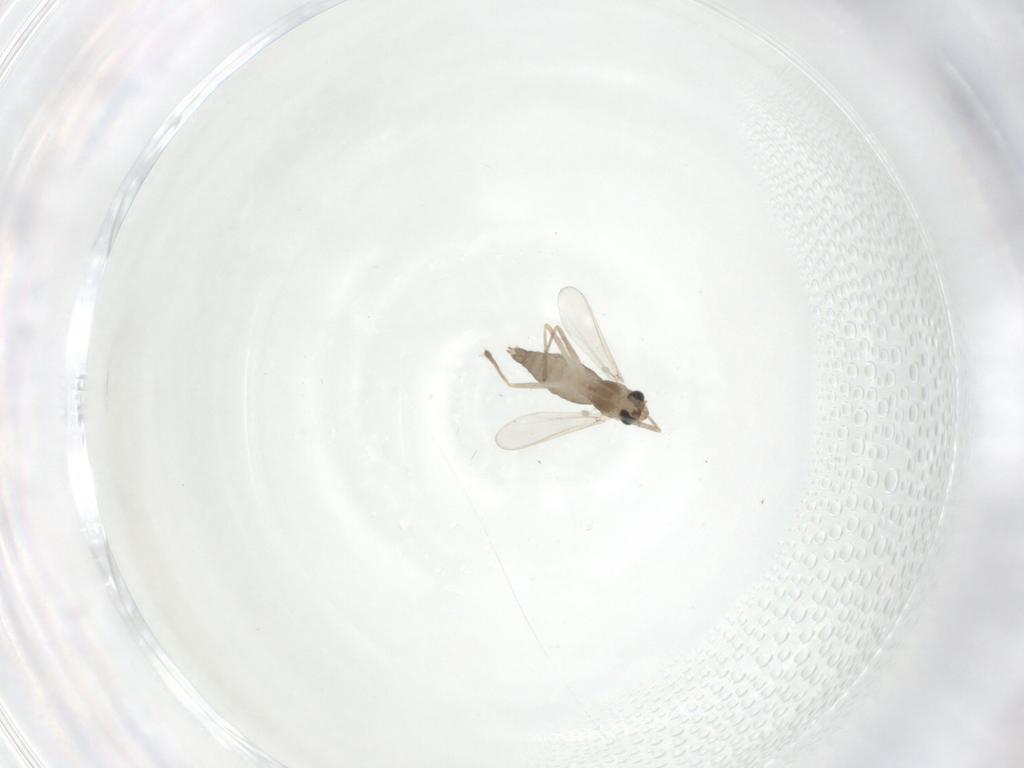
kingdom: Animalia
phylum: Arthropoda
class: Insecta
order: Diptera
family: Chironomidae
